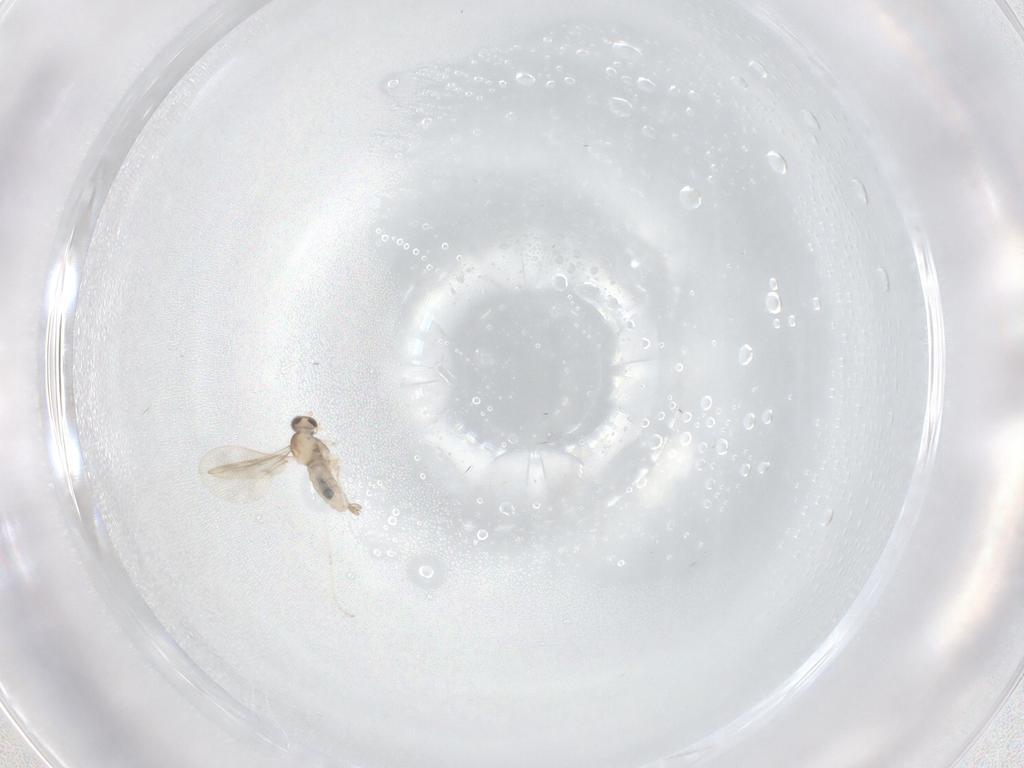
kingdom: Animalia
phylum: Arthropoda
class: Insecta
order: Diptera
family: Cecidomyiidae
